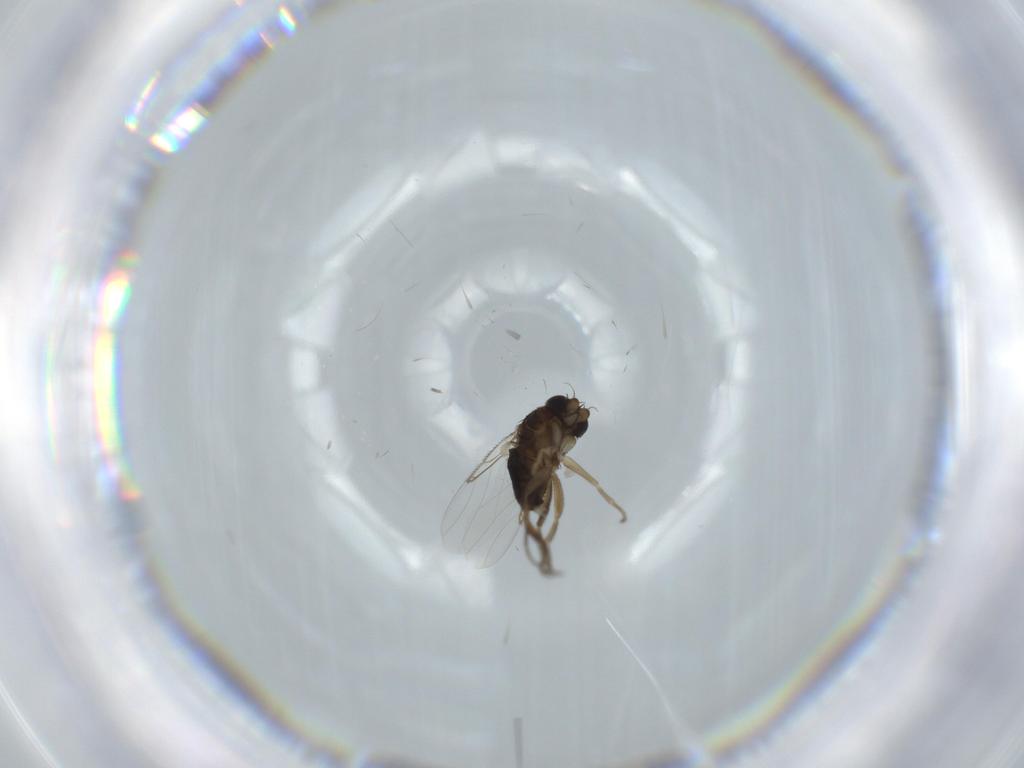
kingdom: Animalia
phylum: Arthropoda
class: Insecta
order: Diptera
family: Phoridae
